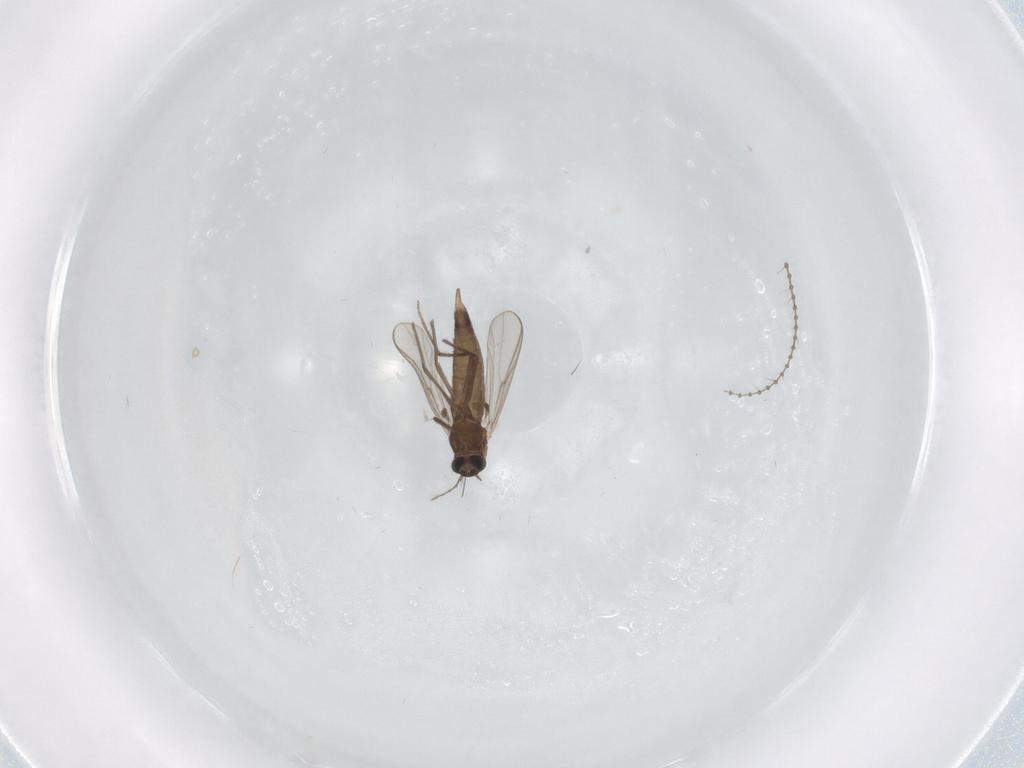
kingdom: Animalia
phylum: Arthropoda
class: Insecta
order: Diptera
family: Chironomidae
